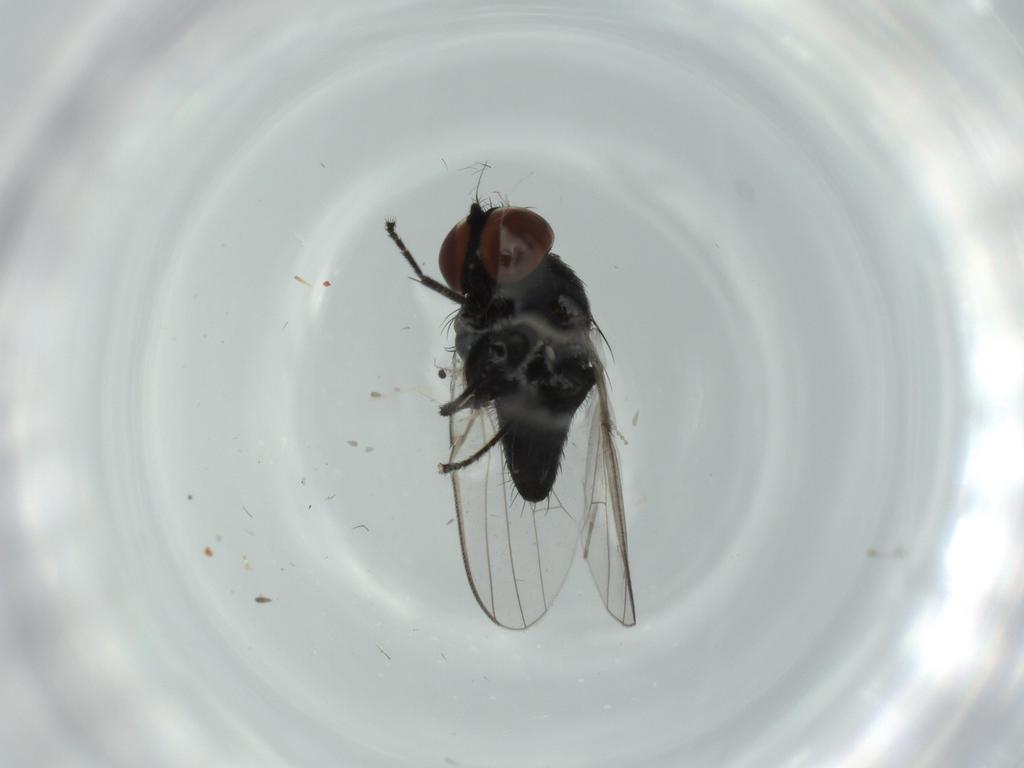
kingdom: Animalia
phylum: Arthropoda
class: Insecta
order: Diptera
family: Milichiidae
